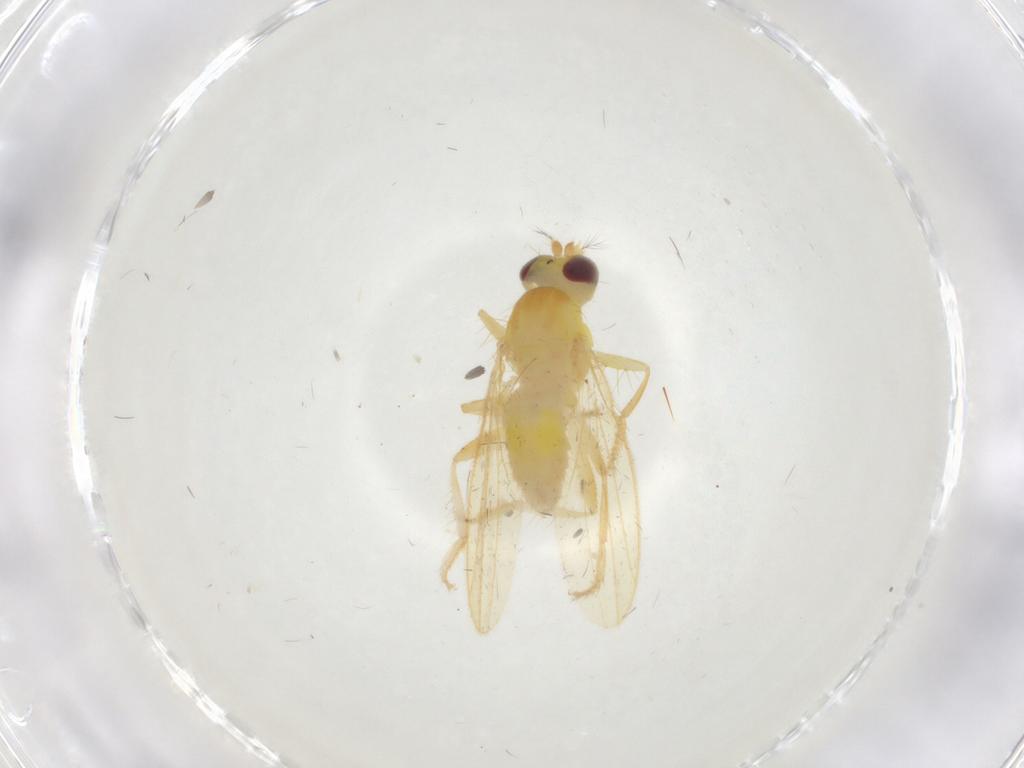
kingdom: Animalia
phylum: Arthropoda
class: Insecta
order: Diptera
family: Periscelididae
